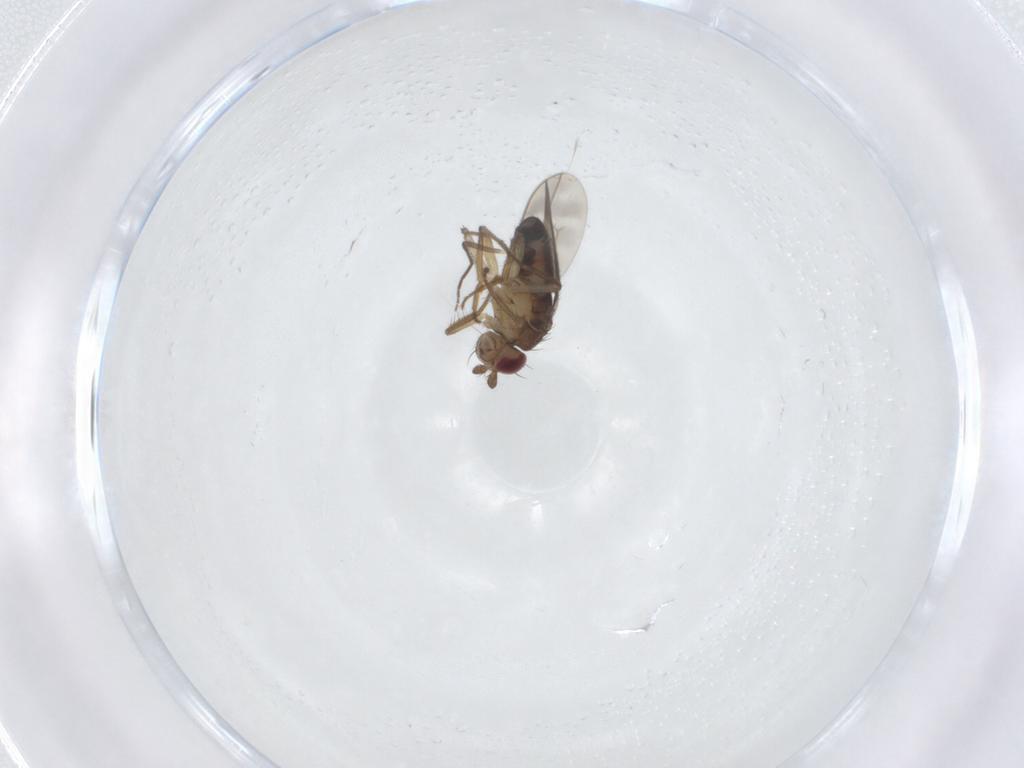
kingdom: Animalia
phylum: Arthropoda
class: Insecta
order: Diptera
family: Sphaeroceridae
